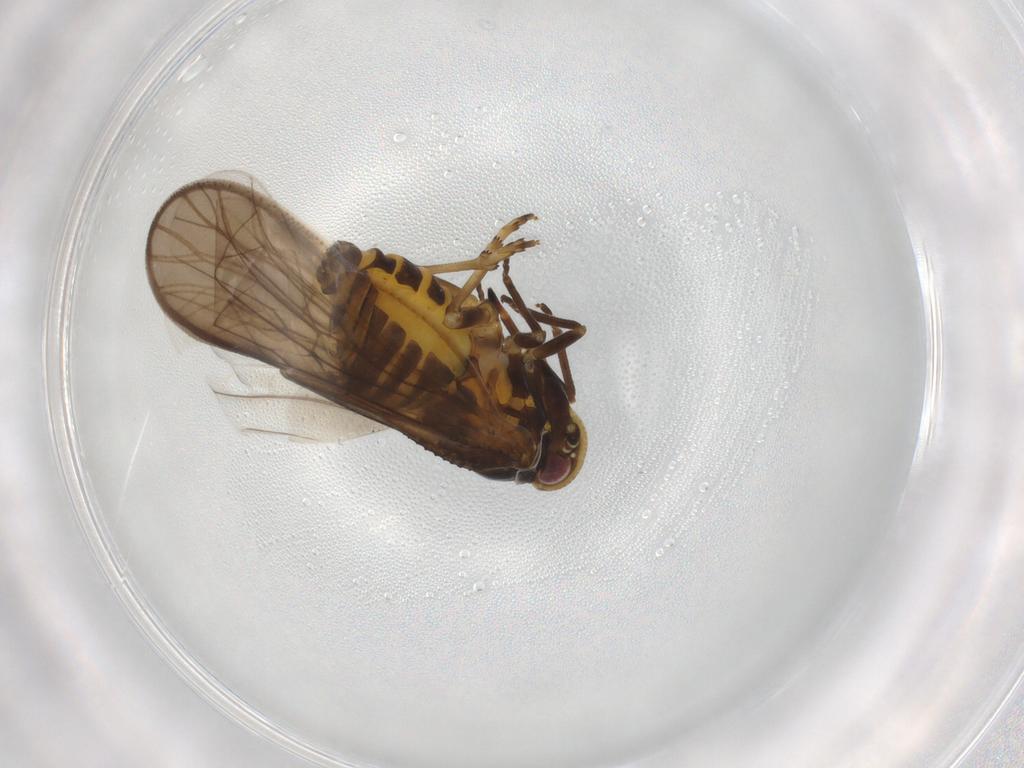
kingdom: Animalia
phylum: Arthropoda
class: Insecta
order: Hemiptera
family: Meenoplidae
